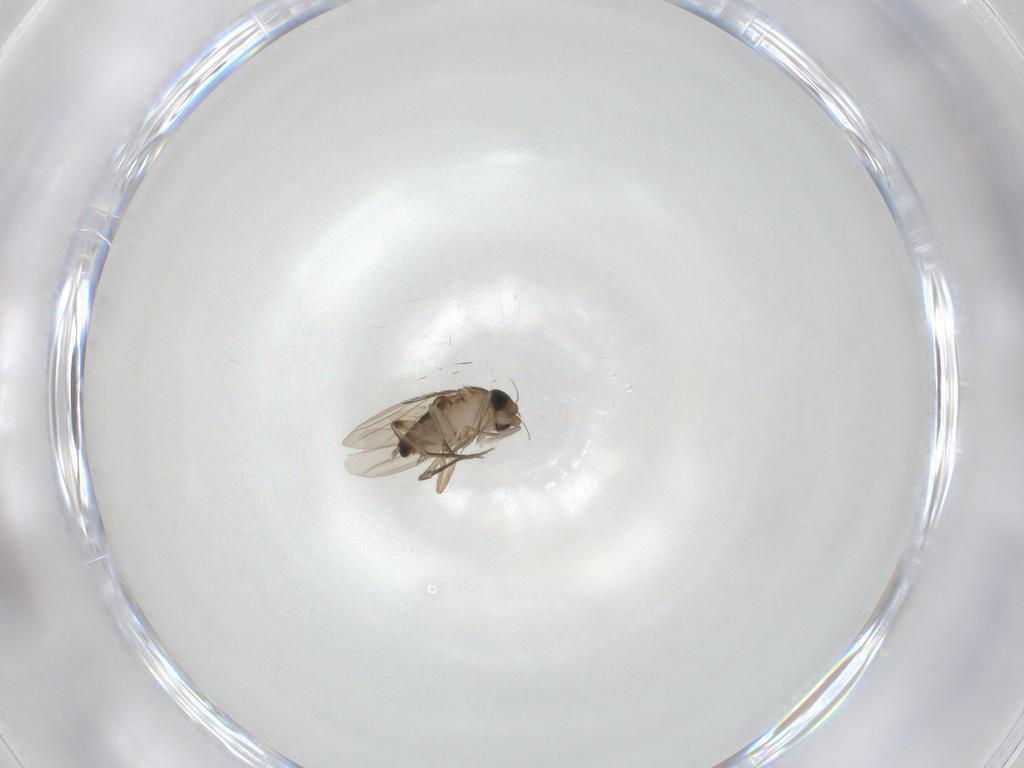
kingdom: Animalia
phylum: Arthropoda
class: Insecta
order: Diptera
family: Phoridae
